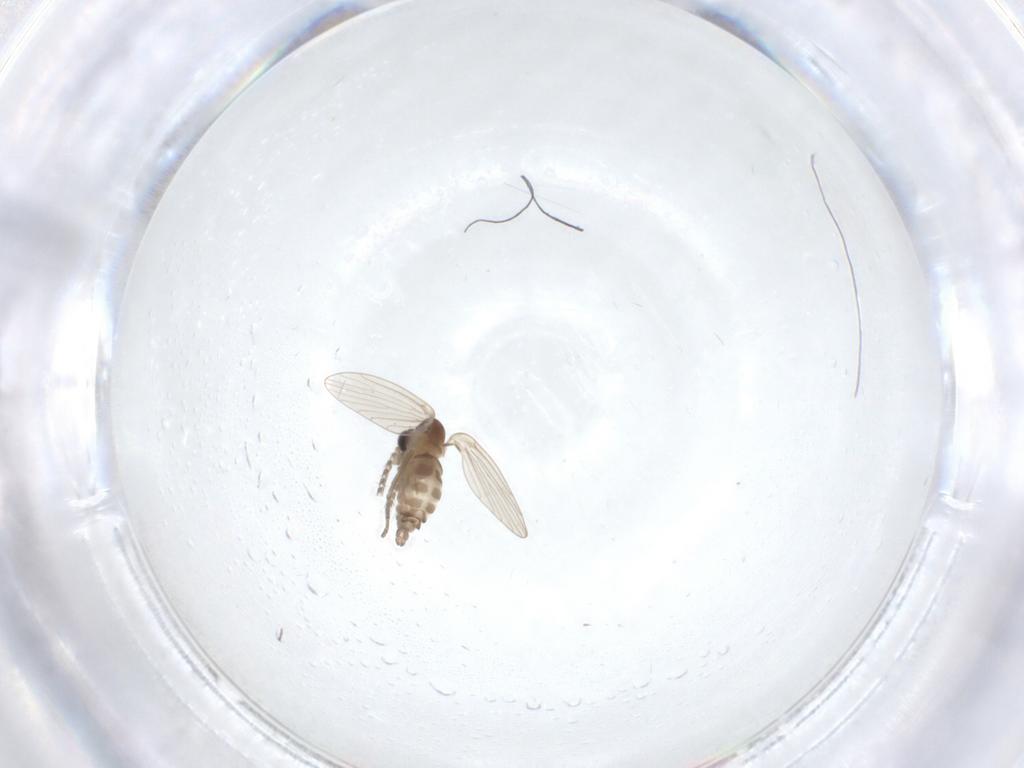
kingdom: Animalia
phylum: Arthropoda
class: Insecta
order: Diptera
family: Cecidomyiidae
